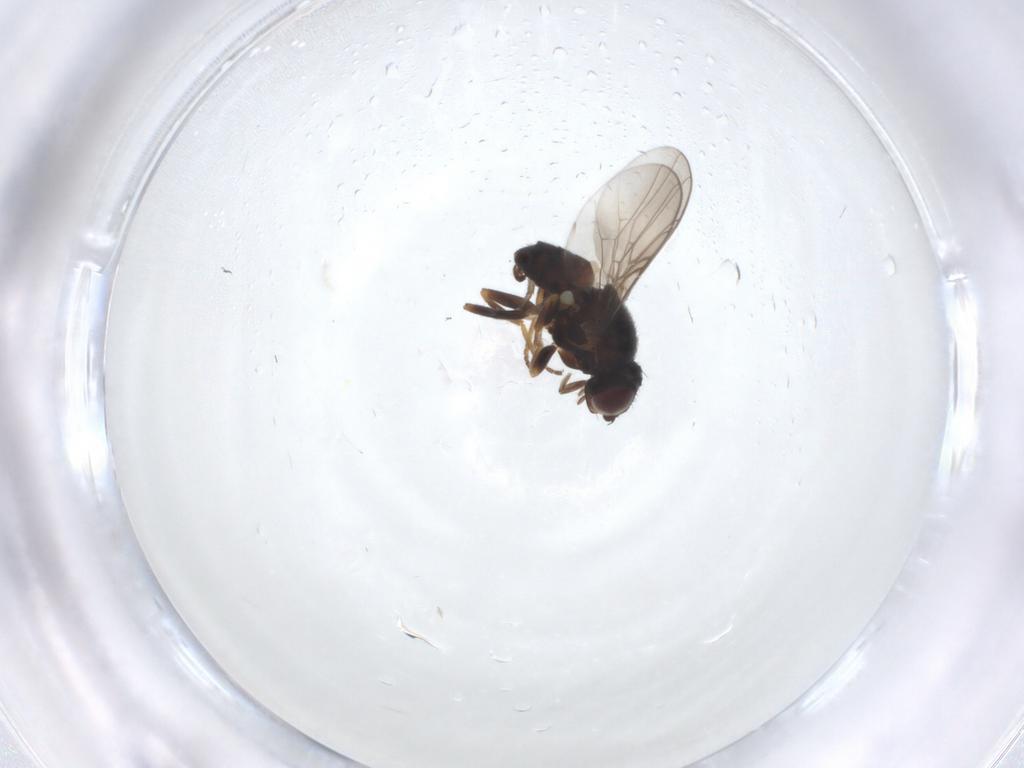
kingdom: Animalia
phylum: Arthropoda
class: Insecta
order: Diptera
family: Chloropidae
